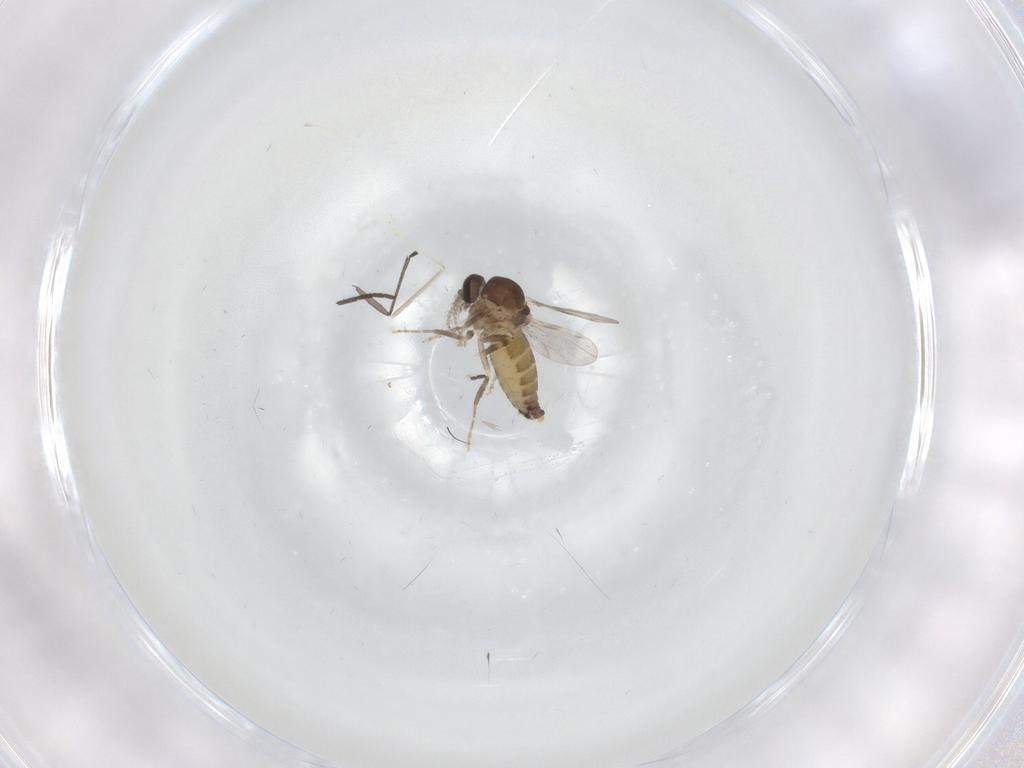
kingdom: Animalia
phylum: Arthropoda
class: Insecta
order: Diptera
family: Ceratopogonidae
